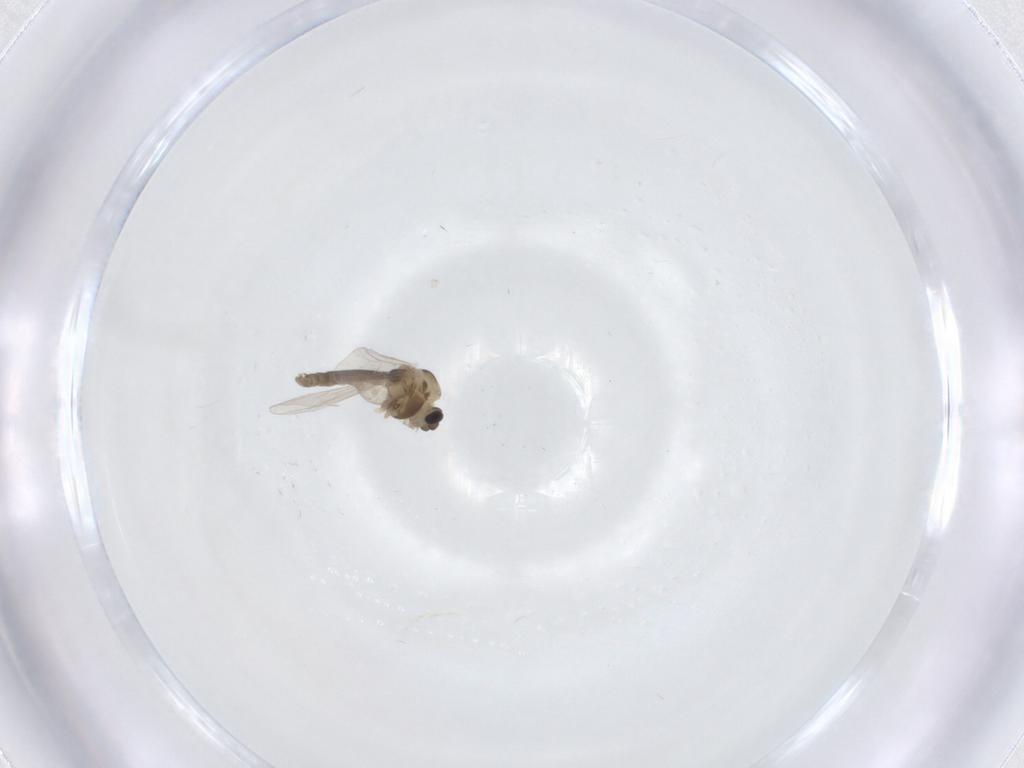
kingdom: Animalia
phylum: Arthropoda
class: Insecta
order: Diptera
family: Chironomidae
